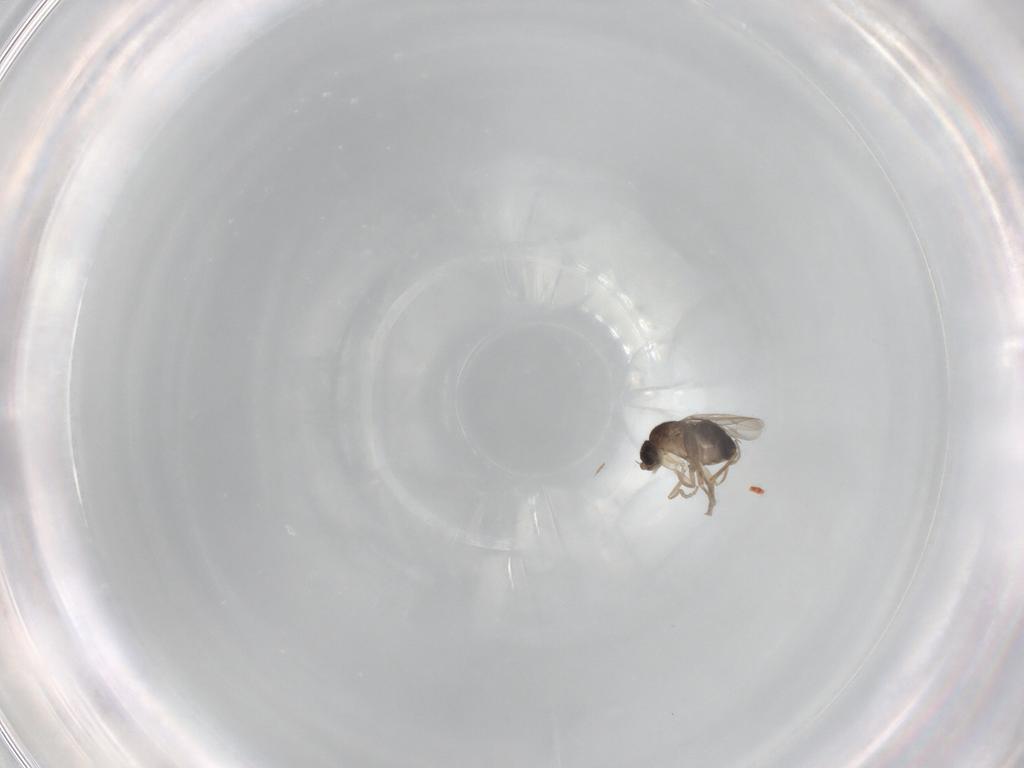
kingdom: Animalia
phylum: Arthropoda
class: Insecta
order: Diptera
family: Phoridae
